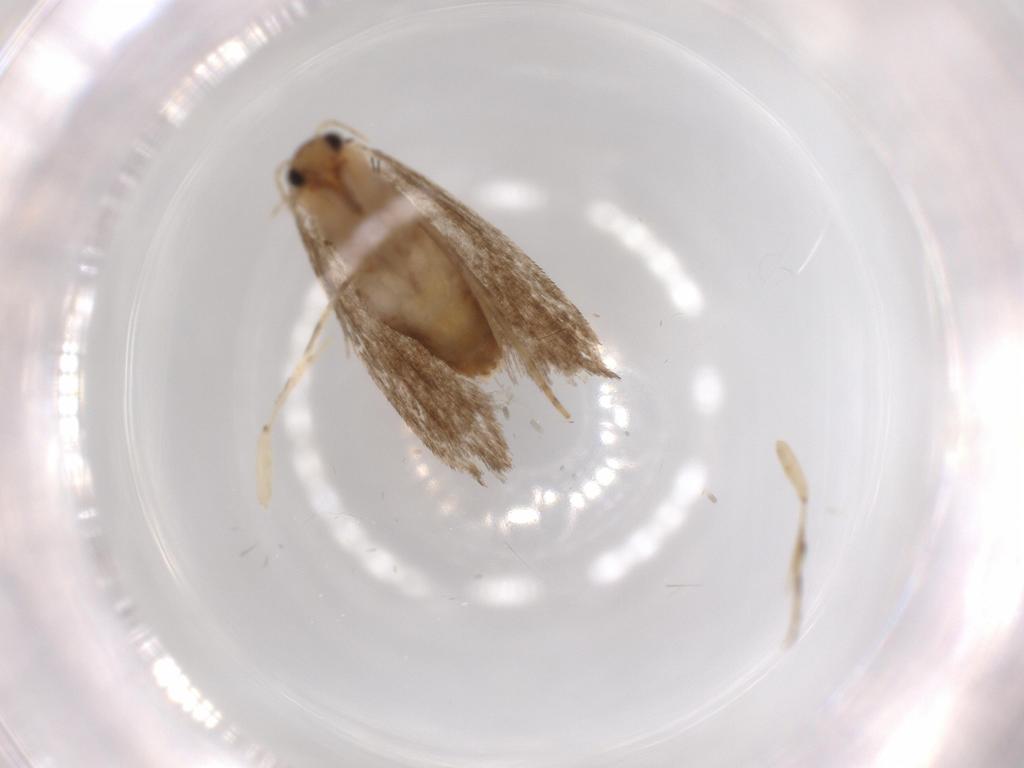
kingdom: Animalia
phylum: Arthropoda
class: Insecta
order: Lepidoptera
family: Tineidae
